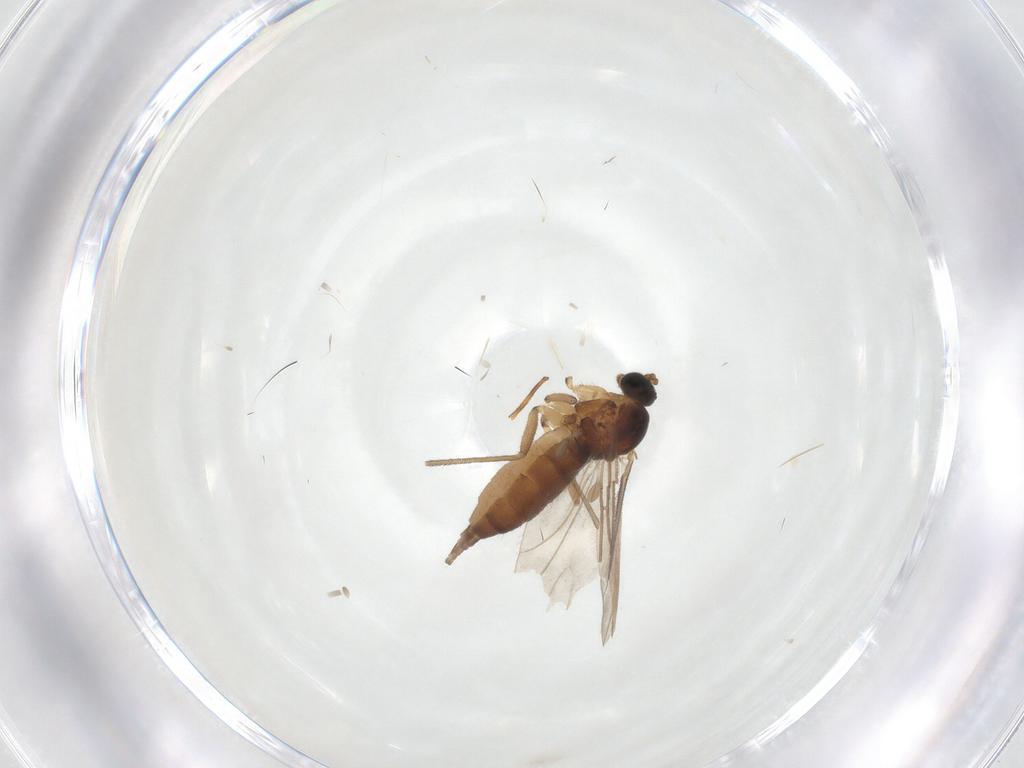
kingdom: Animalia
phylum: Arthropoda
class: Insecta
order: Diptera
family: Sciaridae
